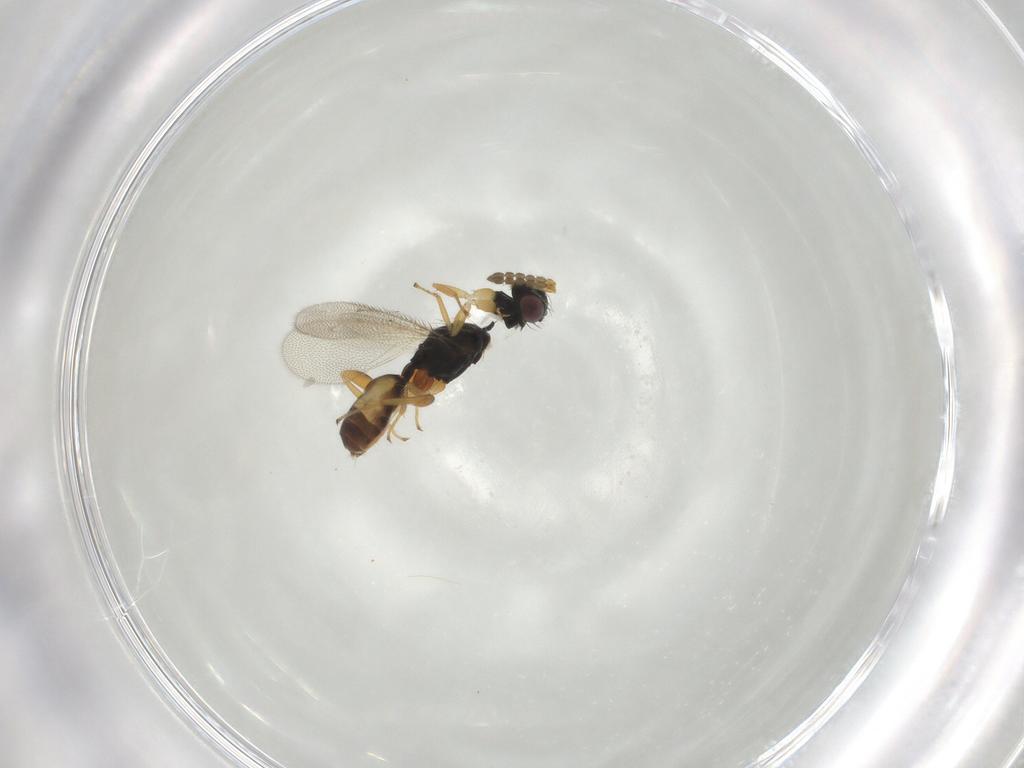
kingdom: Animalia
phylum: Arthropoda
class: Insecta
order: Hymenoptera
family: Eulophidae
